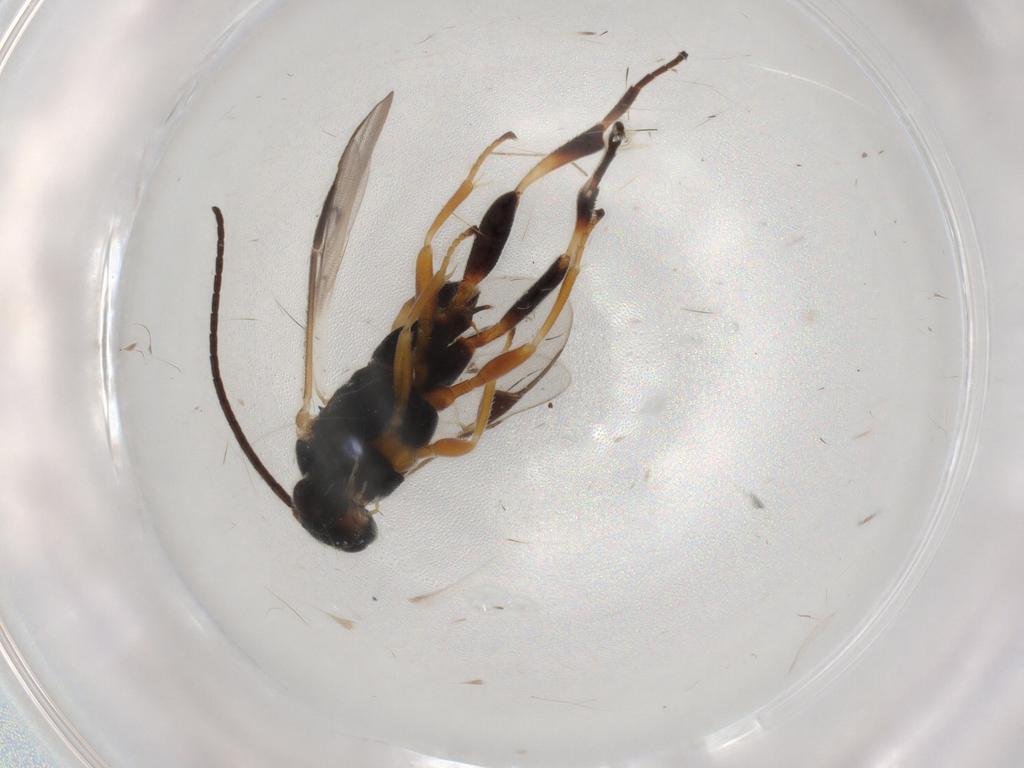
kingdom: Animalia
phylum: Arthropoda
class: Insecta
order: Hymenoptera
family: Braconidae
